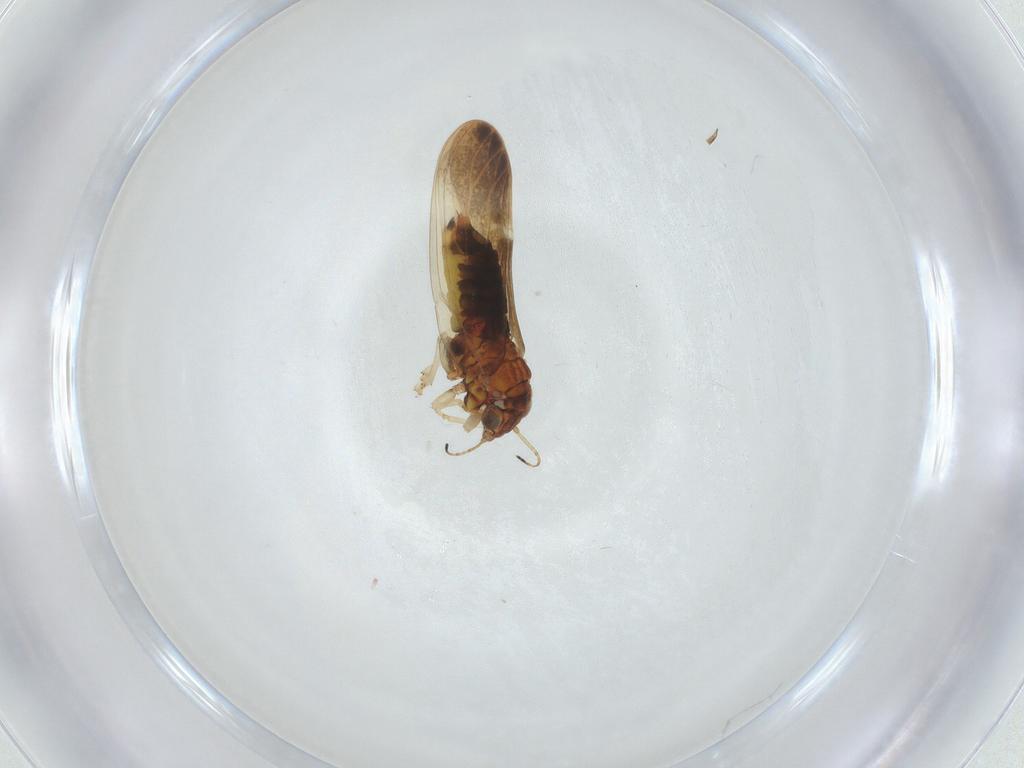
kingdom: Animalia
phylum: Arthropoda
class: Insecta
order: Hemiptera
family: Aphalaridae
